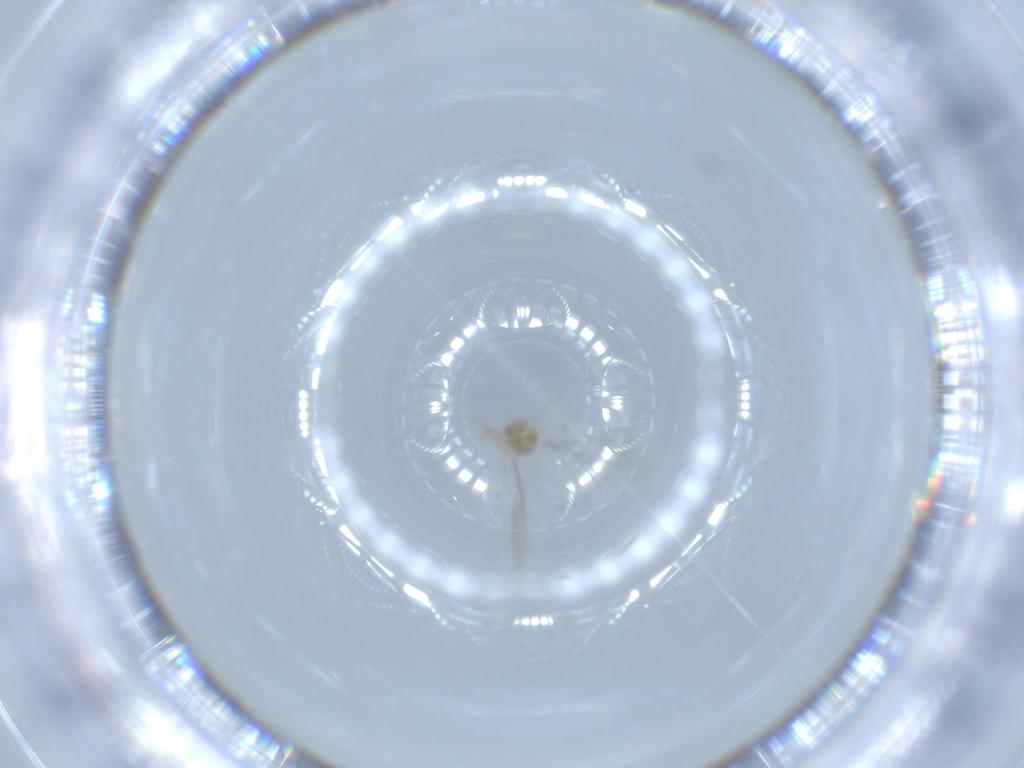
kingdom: Animalia
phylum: Arthropoda
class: Insecta
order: Diptera
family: Cecidomyiidae
